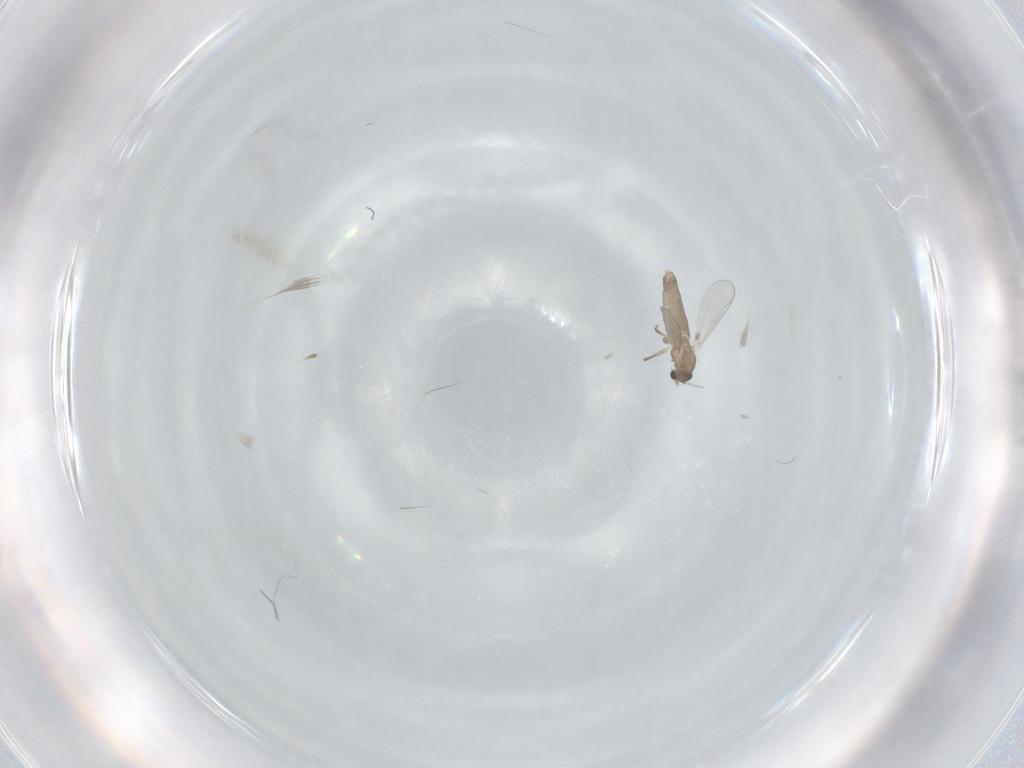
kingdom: Animalia
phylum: Arthropoda
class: Insecta
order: Diptera
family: Chironomidae
